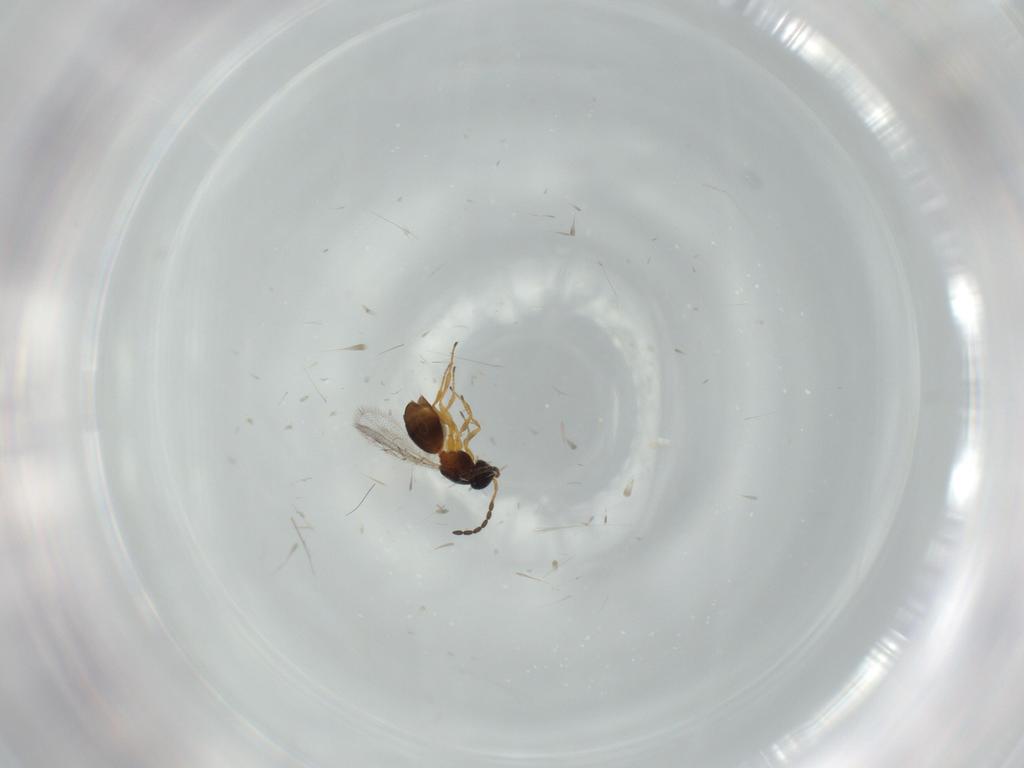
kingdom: Animalia
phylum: Arthropoda
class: Insecta
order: Hymenoptera
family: Figitidae
